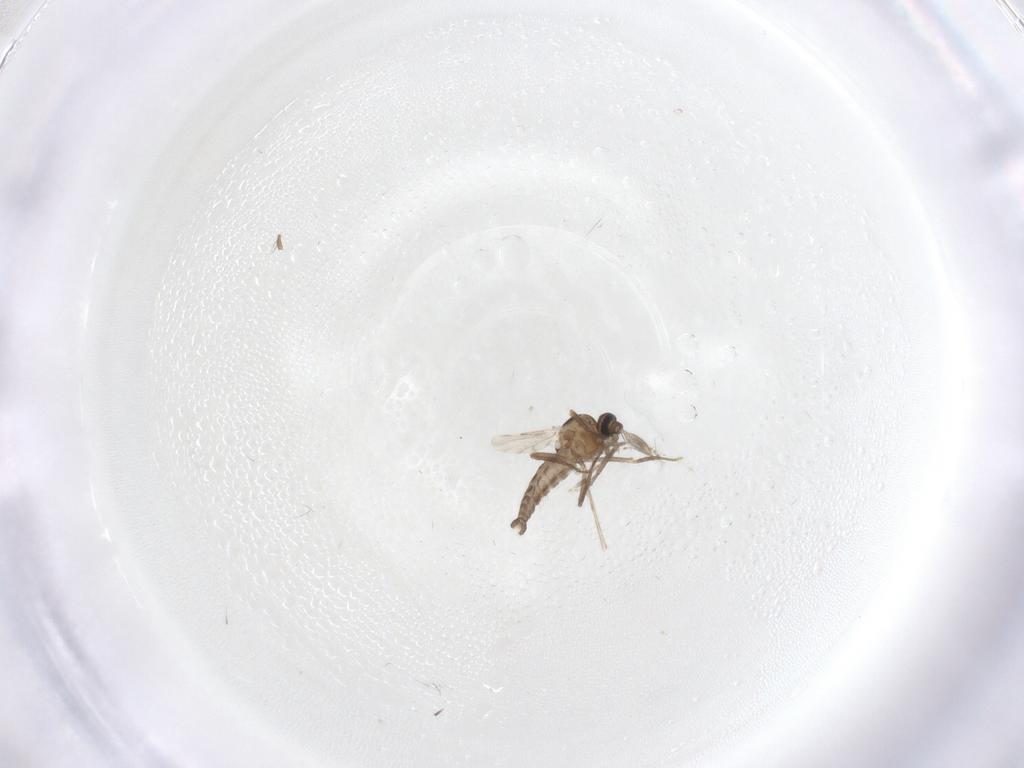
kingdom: Animalia
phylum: Arthropoda
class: Insecta
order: Diptera
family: Ceratopogonidae
